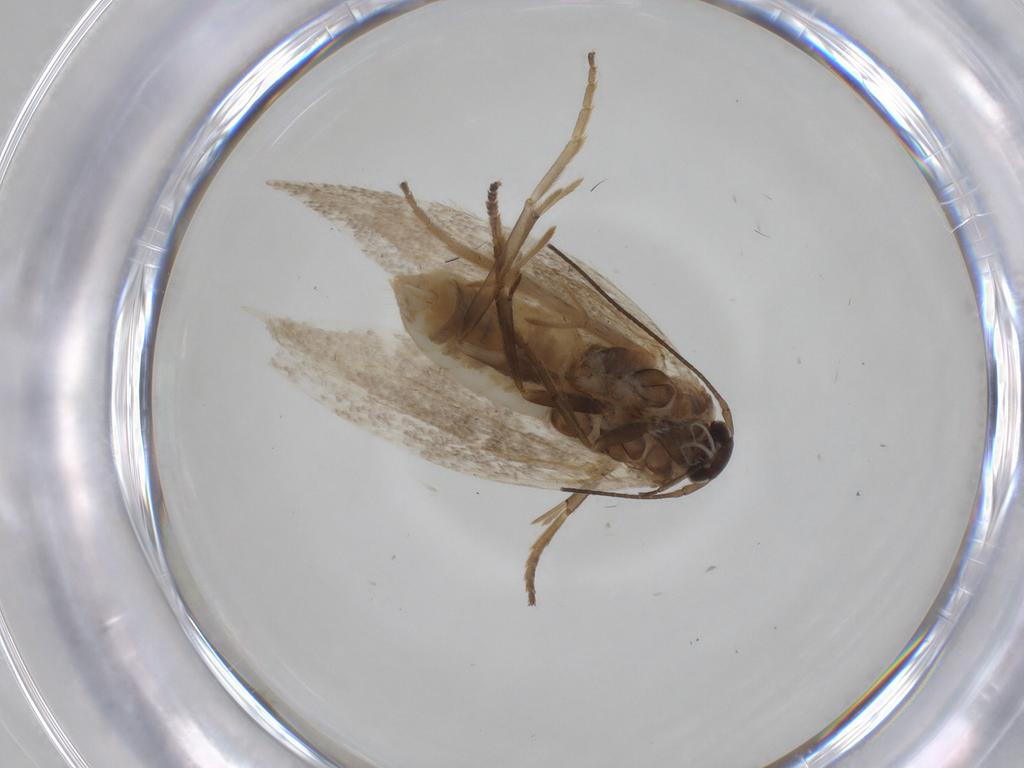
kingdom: Animalia
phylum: Arthropoda
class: Insecta
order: Lepidoptera
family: Elachistidae
